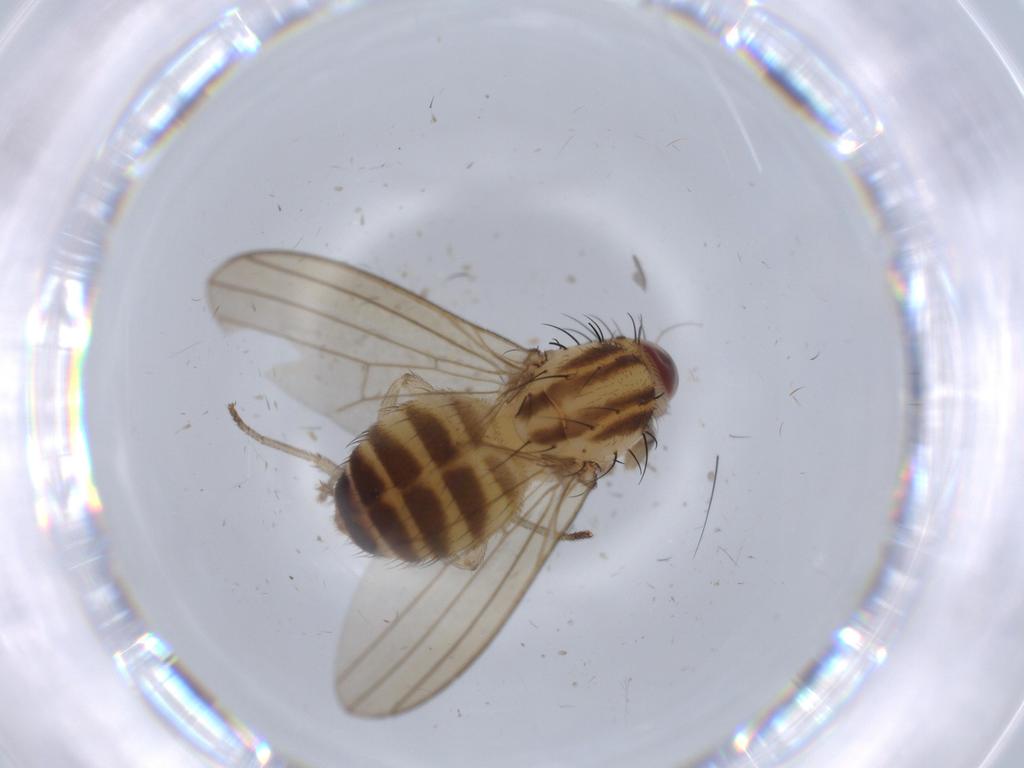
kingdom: Animalia
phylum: Arthropoda
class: Insecta
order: Diptera
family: Cecidomyiidae
